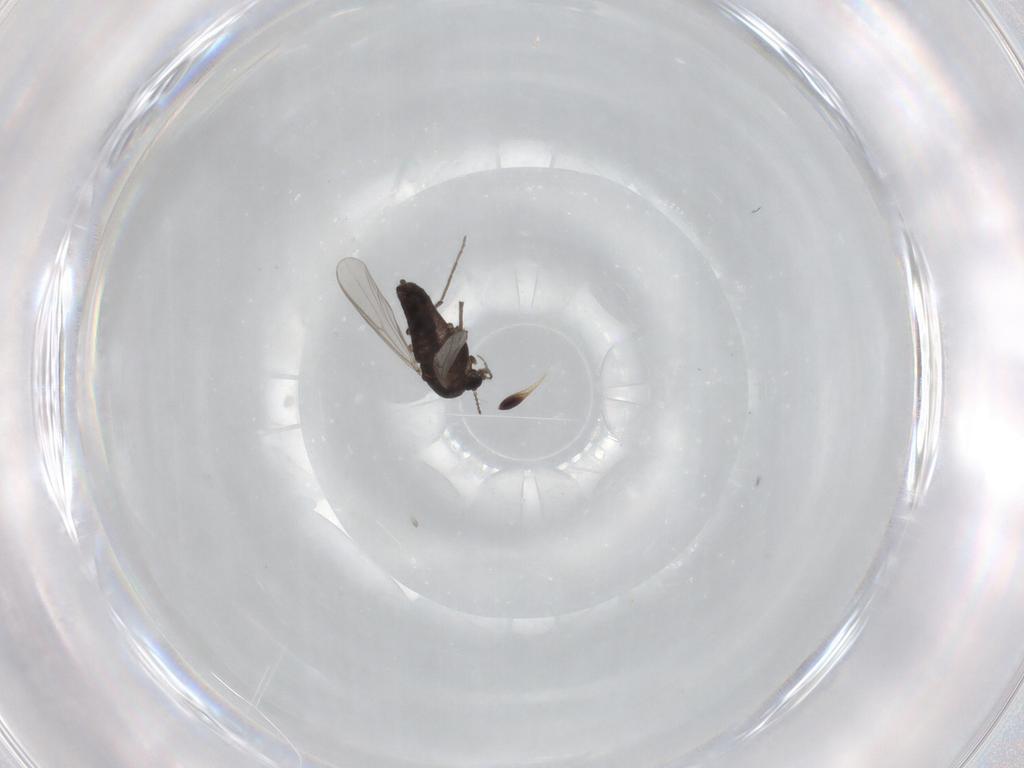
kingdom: Animalia
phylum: Arthropoda
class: Insecta
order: Diptera
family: Chironomidae
